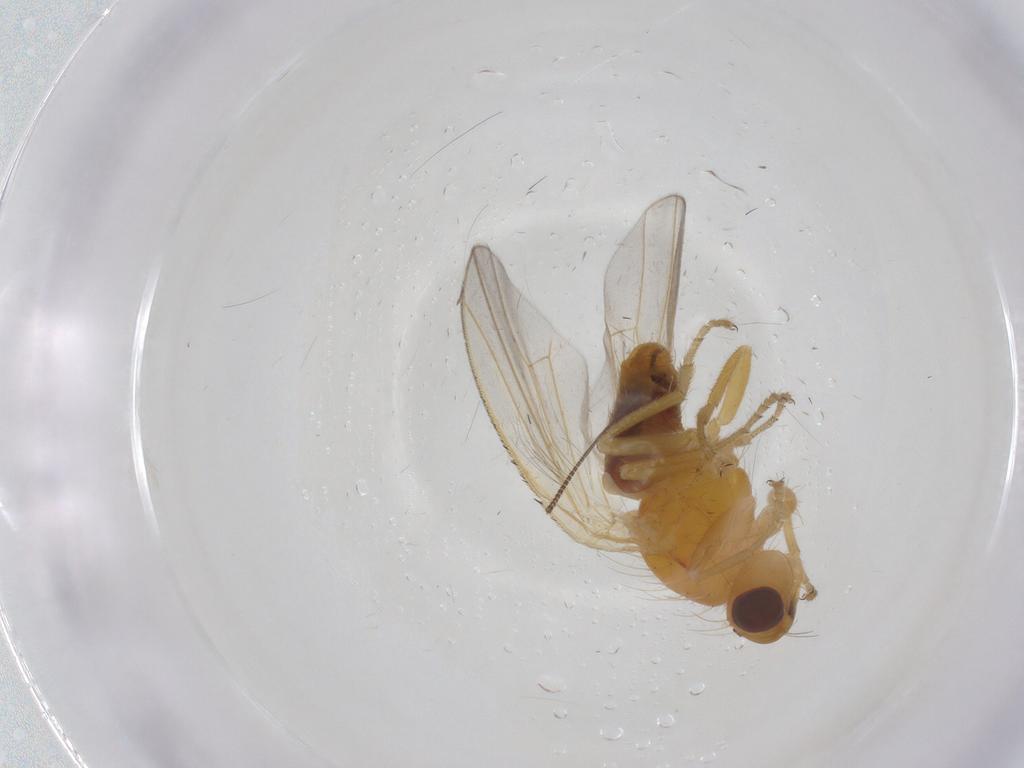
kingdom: Animalia
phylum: Arthropoda
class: Insecta
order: Diptera
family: Heleomyzidae
